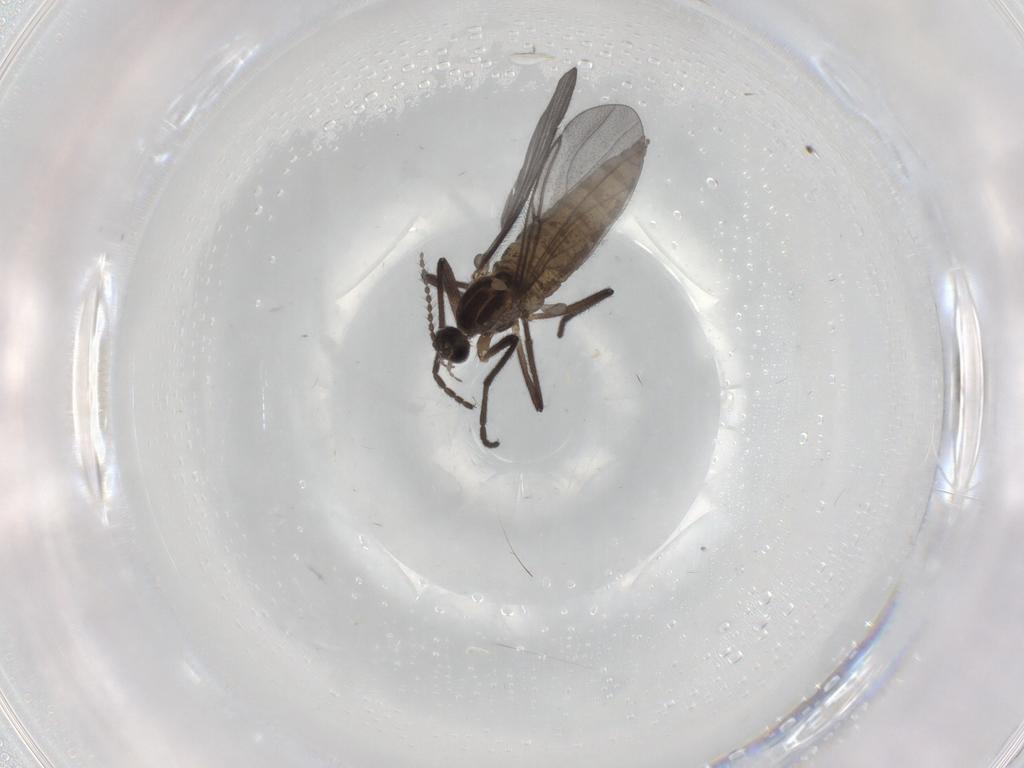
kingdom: Animalia
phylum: Arthropoda
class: Insecta
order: Diptera
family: Cecidomyiidae
